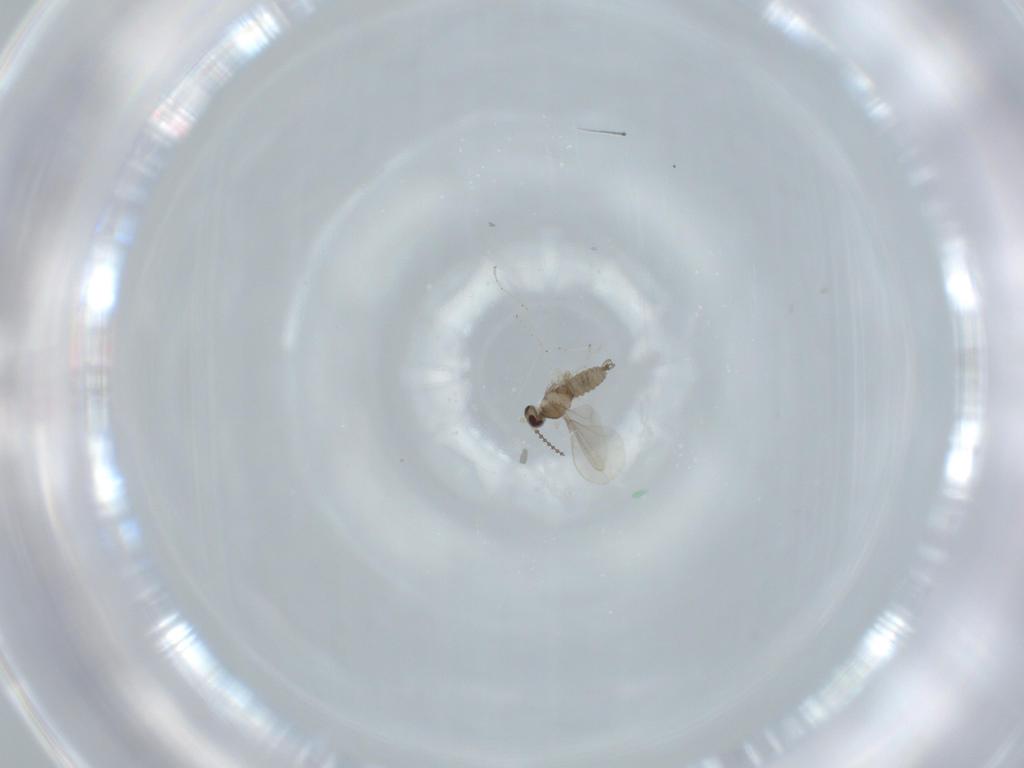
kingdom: Animalia
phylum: Arthropoda
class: Insecta
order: Diptera
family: Cecidomyiidae
